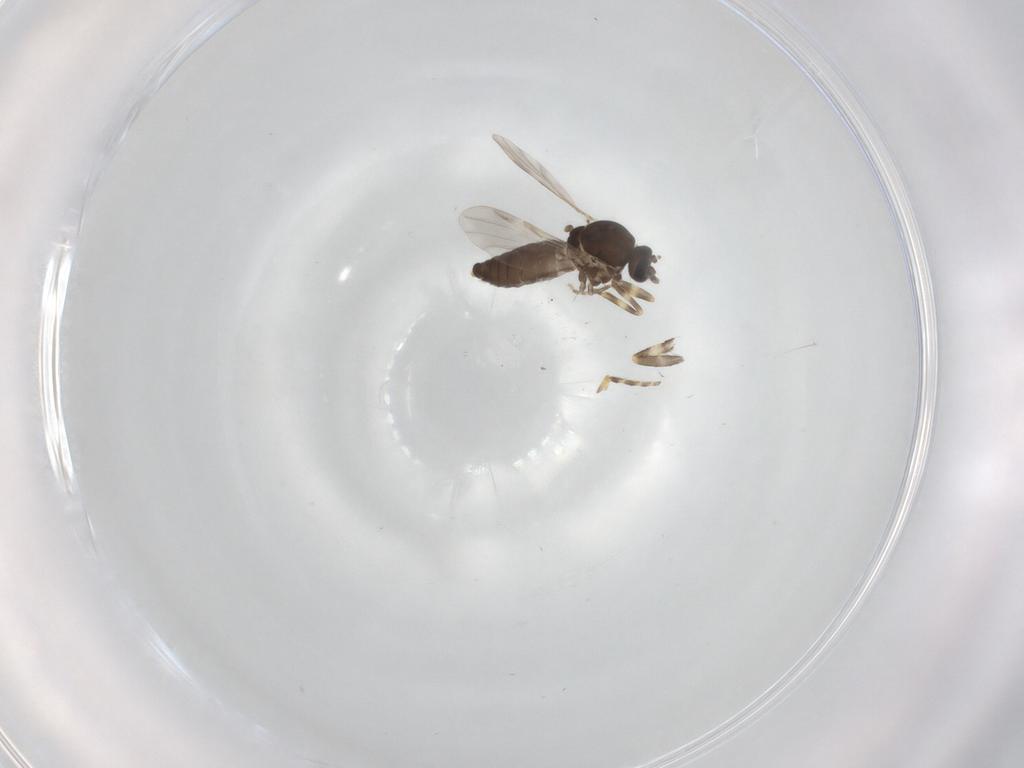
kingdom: Animalia
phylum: Arthropoda
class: Insecta
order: Diptera
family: Ceratopogonidae
